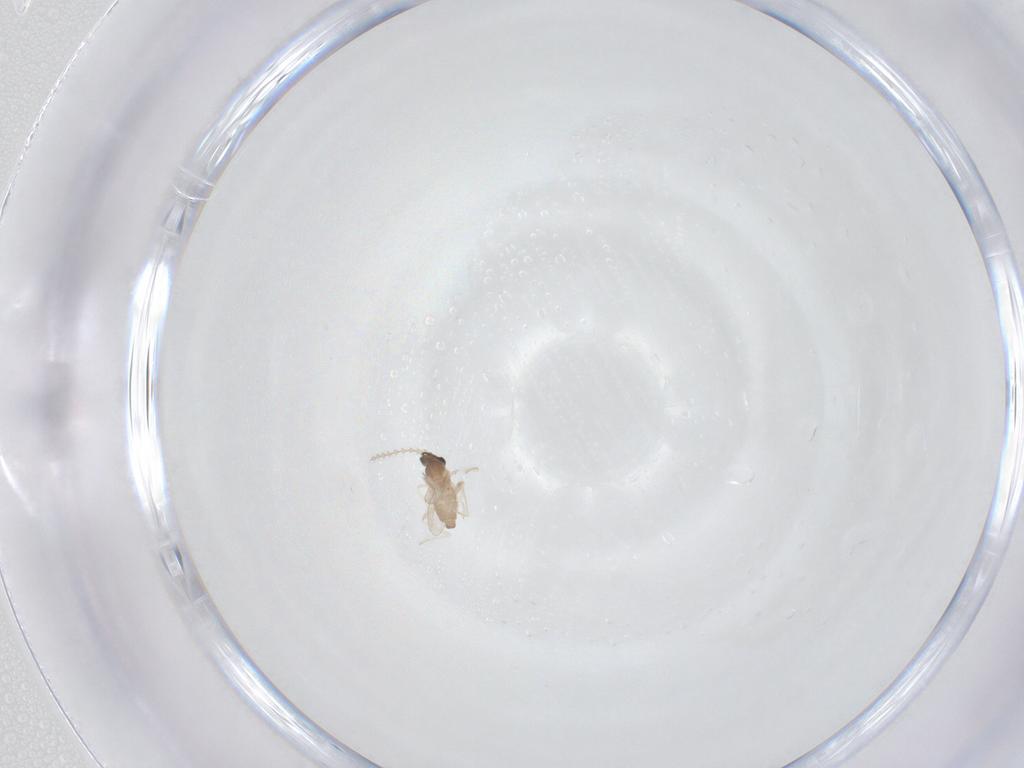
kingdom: Animalia
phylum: Arthropoda
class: Insecta
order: Diptera
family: Cecidomyiidae
